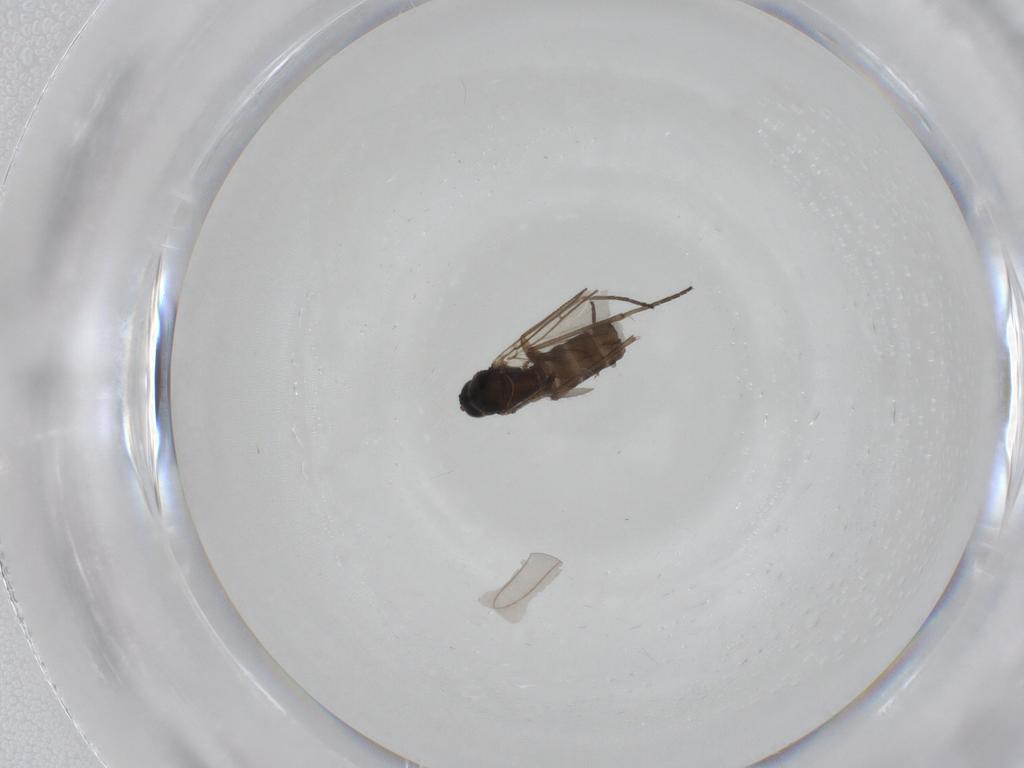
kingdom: Animalia
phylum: Arthropoda
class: Insecta
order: Diptera
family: Sciaridae
